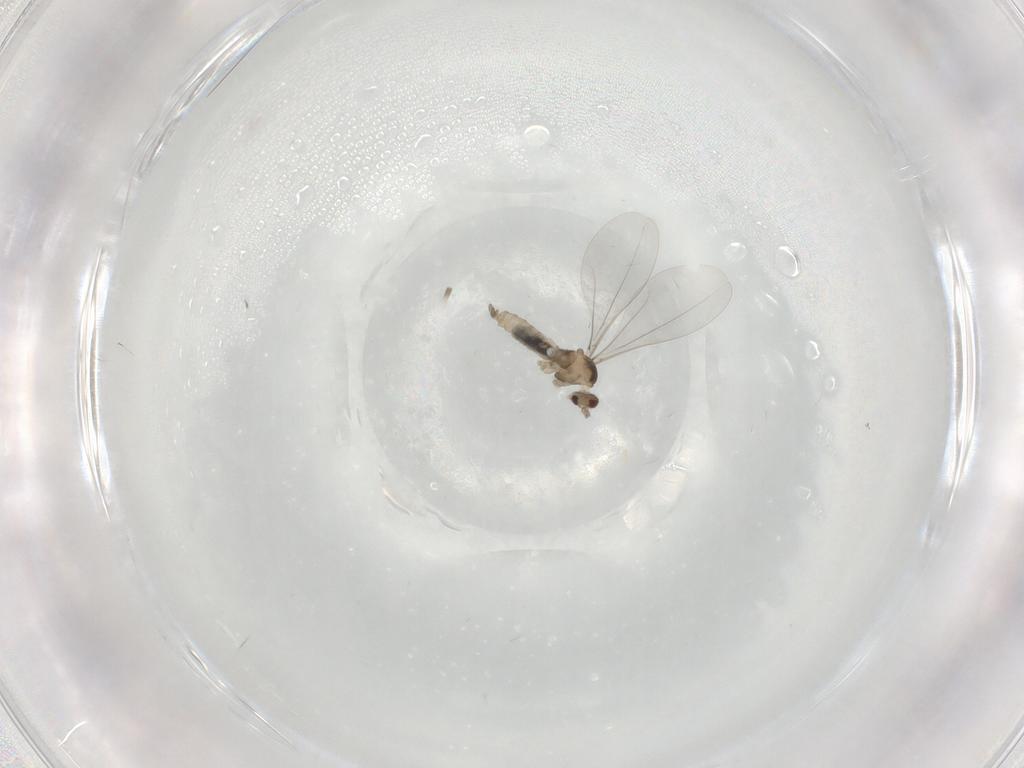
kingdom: Animalia
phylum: Arthropoda
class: Insecta
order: Diptera
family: Cecidomyiidae
